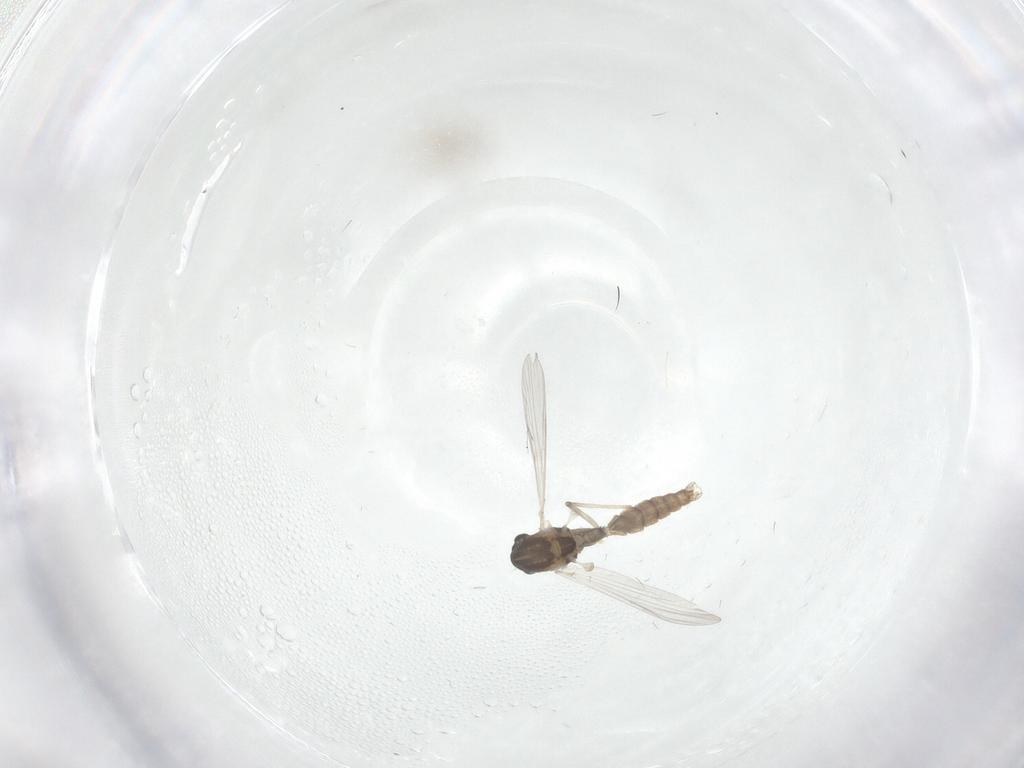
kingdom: Animalia
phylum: Arthropoda
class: Insecta
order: Diptera
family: Chironomidae
